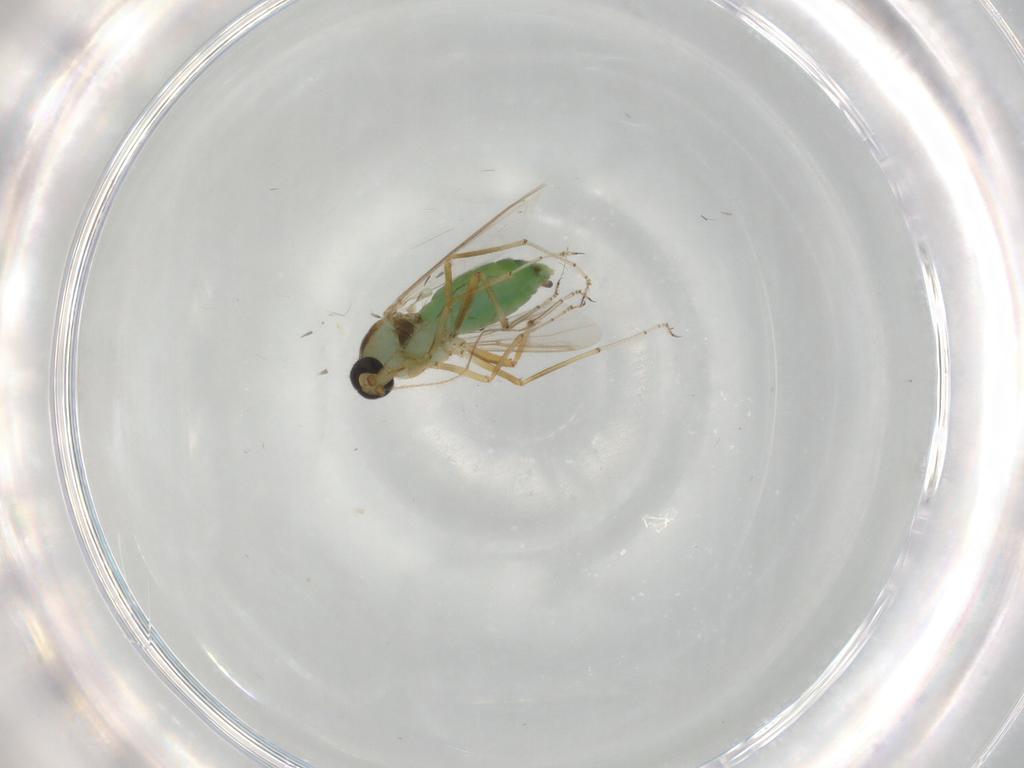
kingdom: Animalia
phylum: Arthropoda
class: Insecta
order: Diptera
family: Ceratopogonidae
